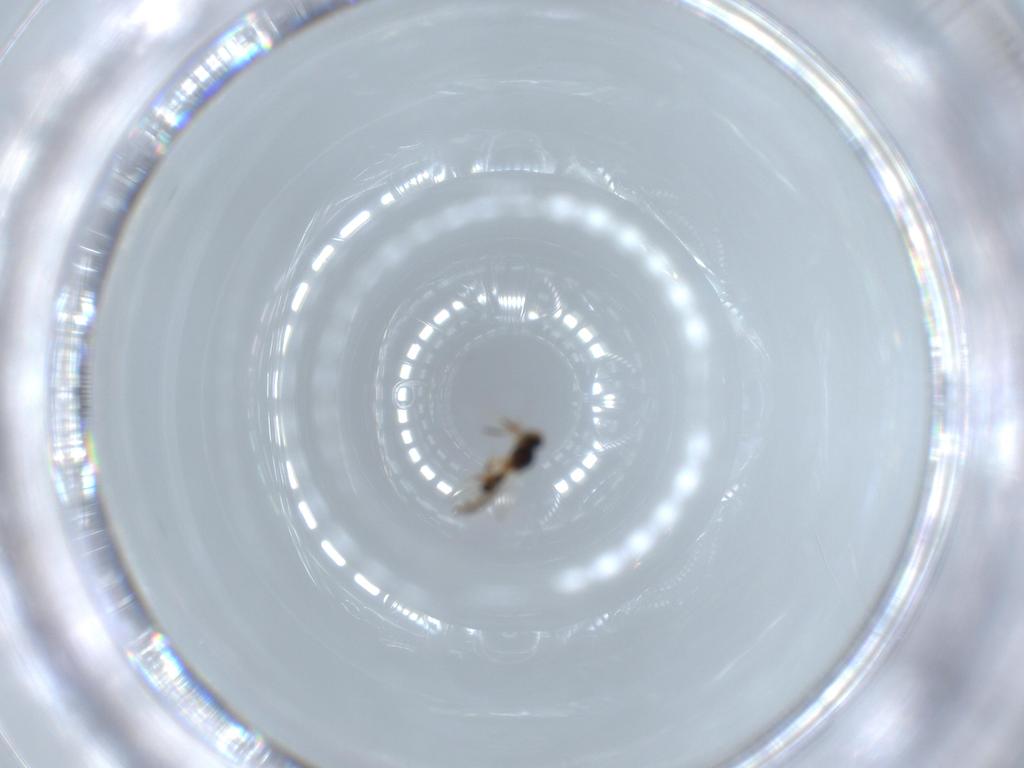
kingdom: Animalia
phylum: Arthropoda
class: Insecta
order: Hymenoptera
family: Platygastridae
